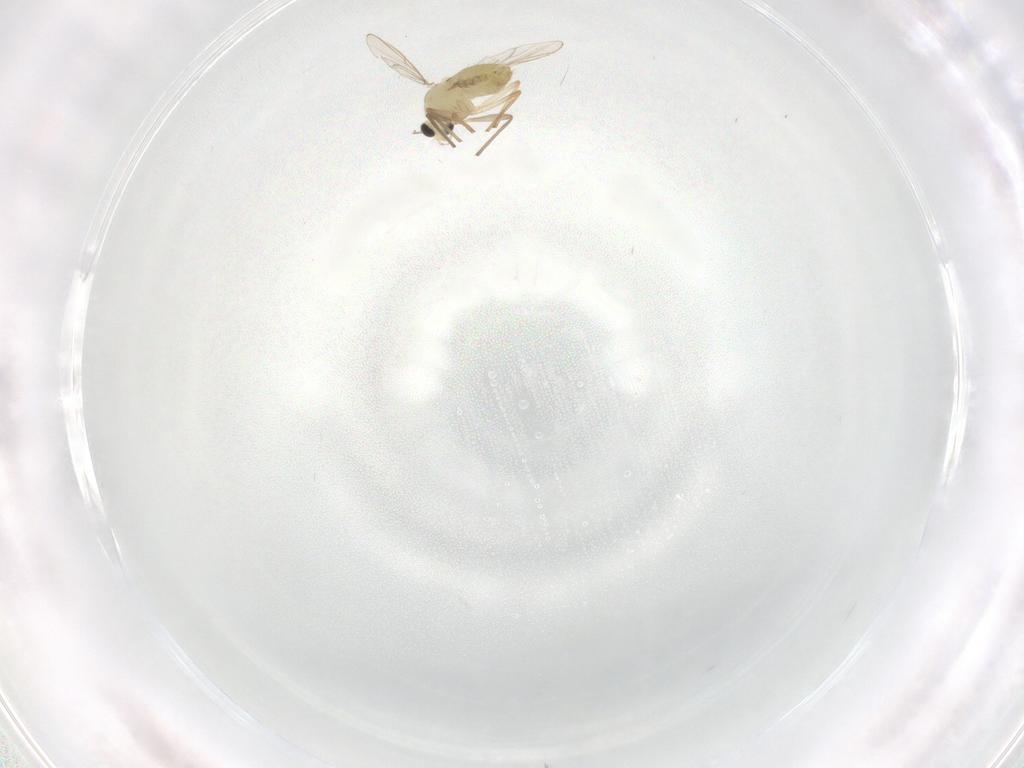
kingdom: Animalia
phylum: Arthropoda
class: Insecta
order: Diptera
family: Chironomidae
